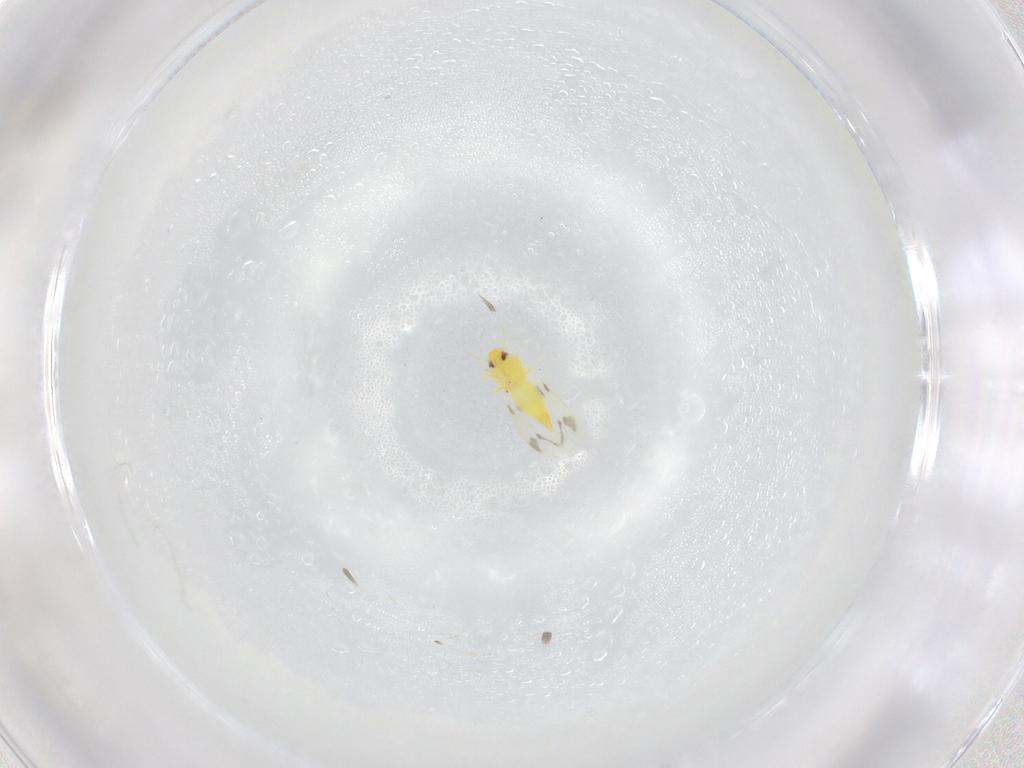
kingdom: Animalia
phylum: Arthropoda
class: Insecta
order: Hemiptera
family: Aleyrodidae
